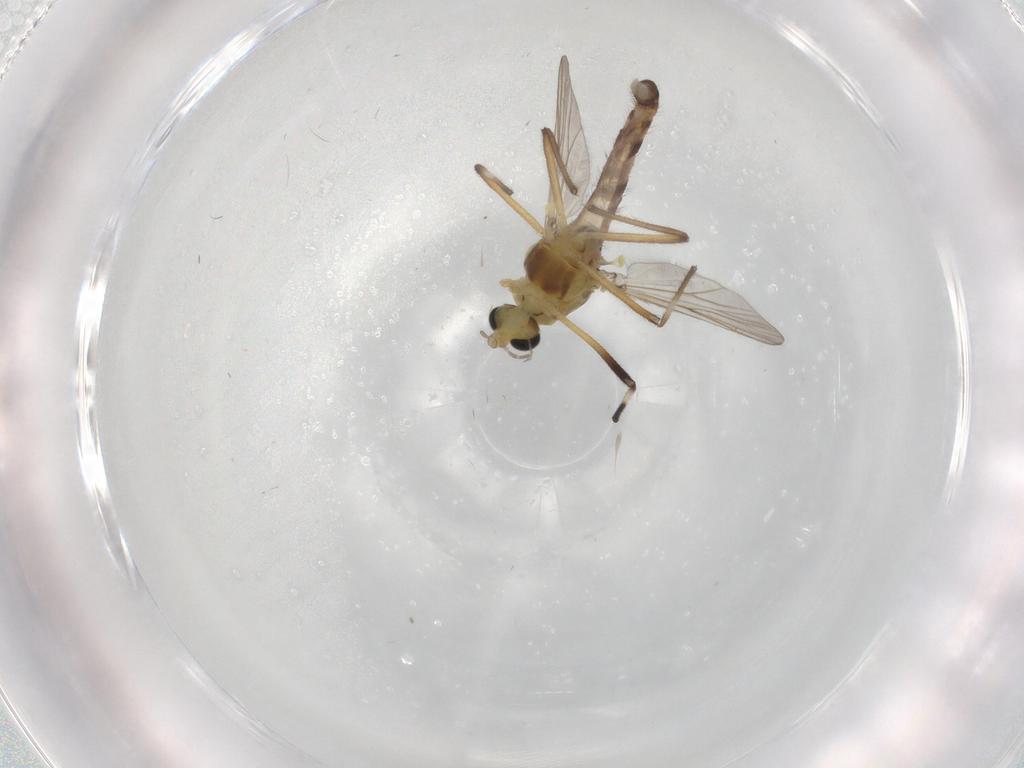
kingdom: Animalia
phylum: Arthropoda
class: Insecta
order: Diptera
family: Chironomidae
